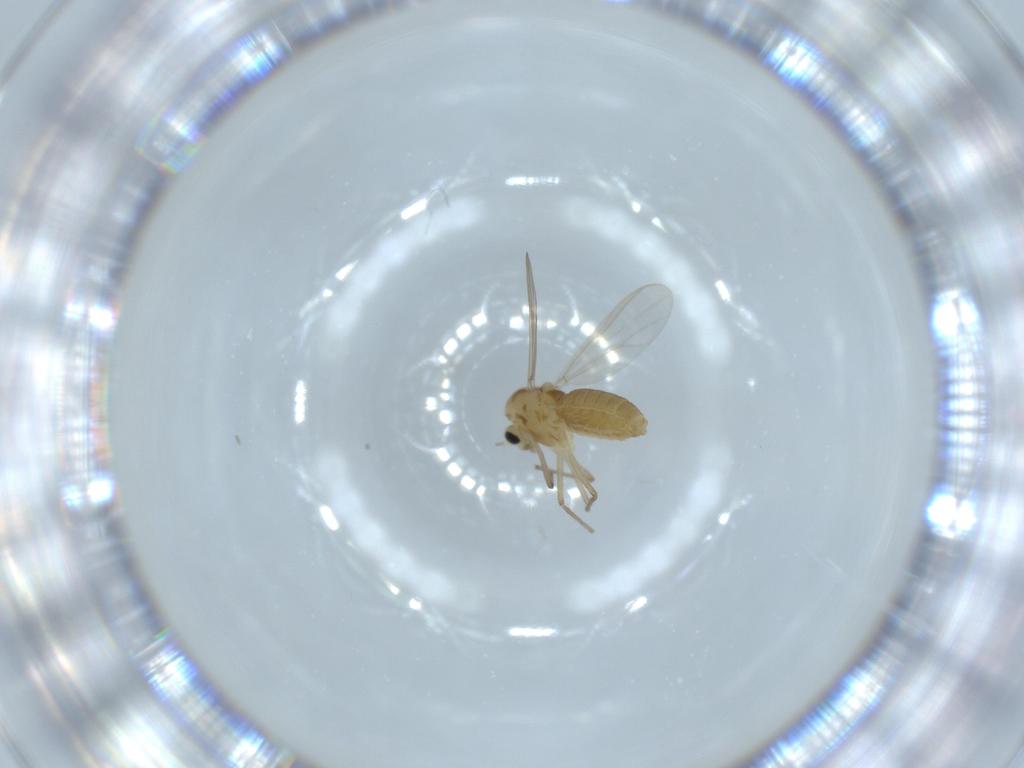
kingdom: Animalia
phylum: Arthropoda
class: Insecta
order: Diptera
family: Chironomidae
